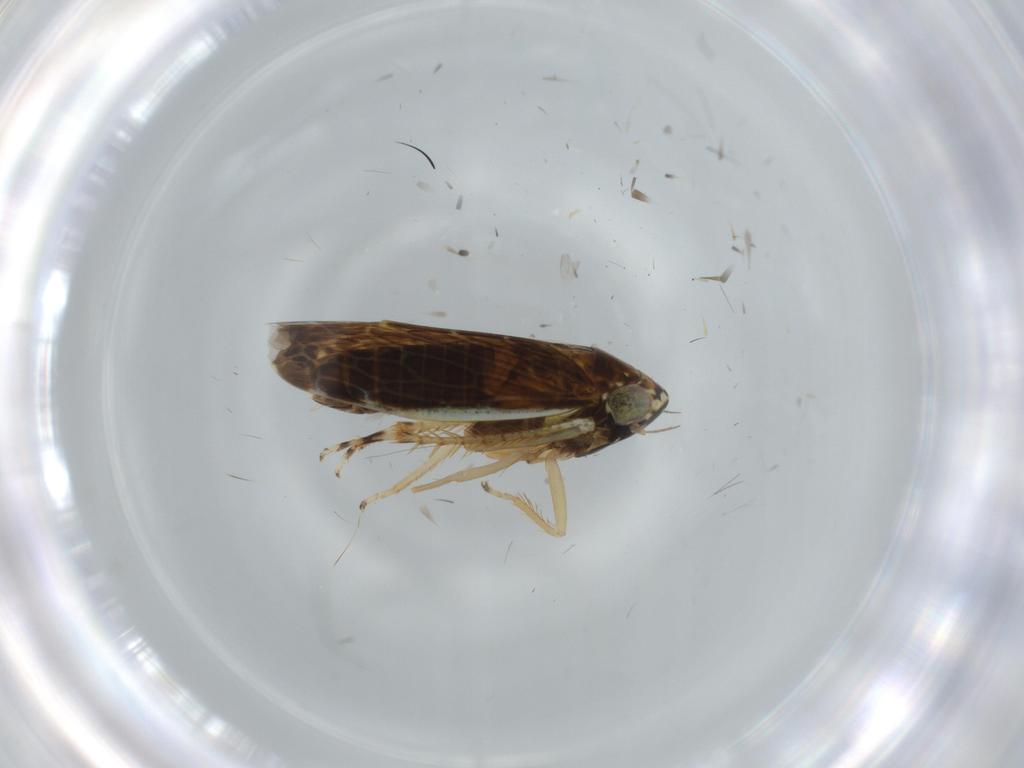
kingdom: Animalia
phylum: Arthropoda
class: Insecta
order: Hemiptera
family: Cicadellidae
